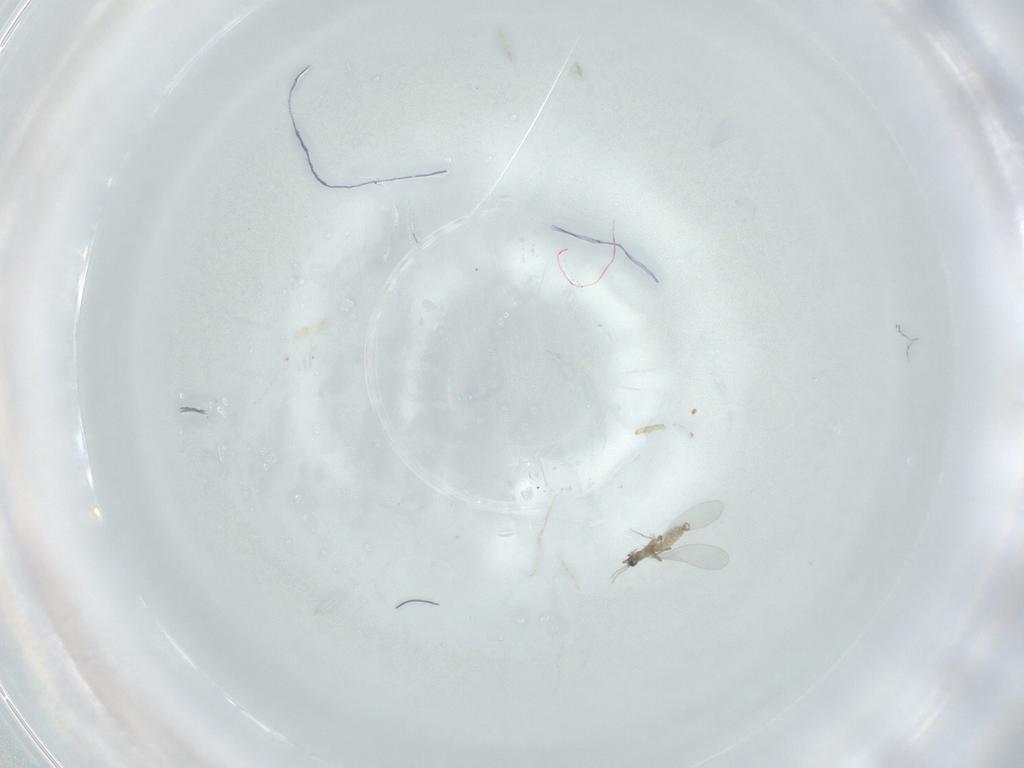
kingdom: Animalia
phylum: Arthropoda
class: Insecta
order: Diptera
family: Cecidomyiidae
